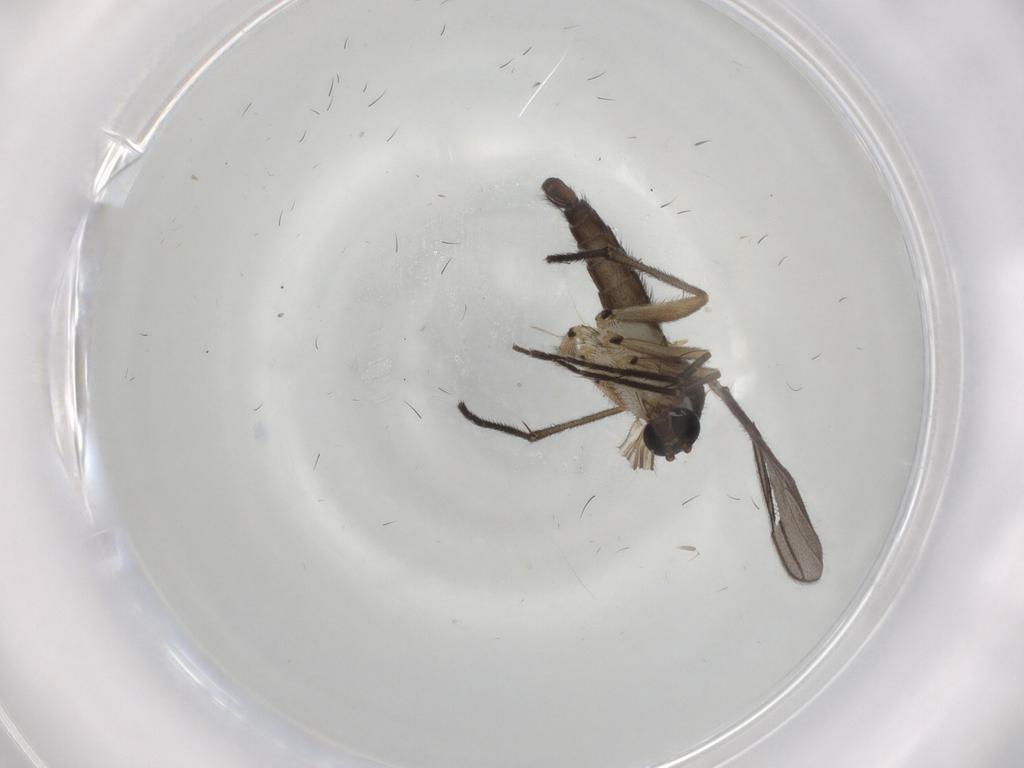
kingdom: Animalia
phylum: Arthropoda
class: Insecta
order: Diptera
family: Sciaridae
